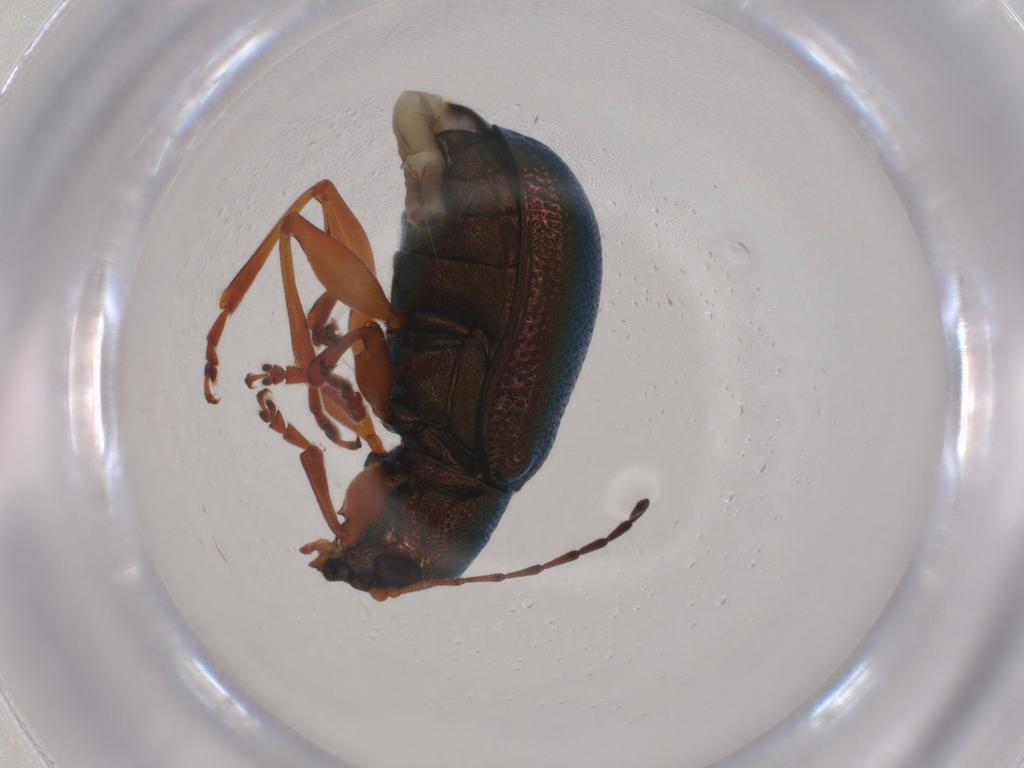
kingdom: Animalia
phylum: Arthropoda
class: Insecta
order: Coleoptera
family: Chrysomelidae
